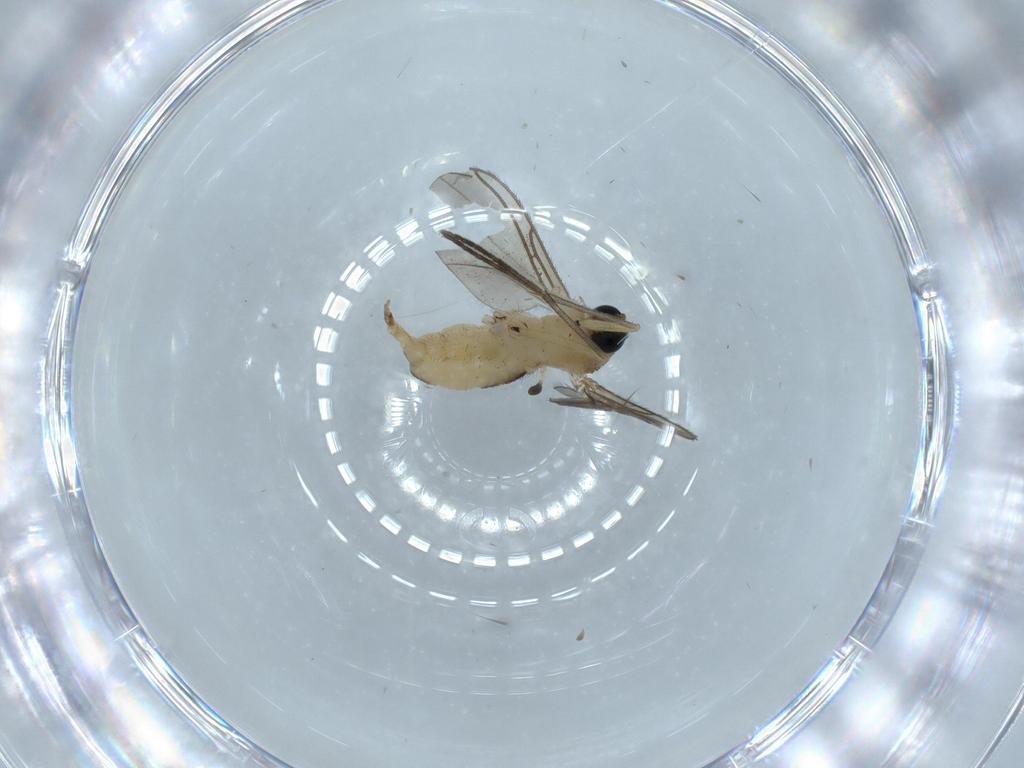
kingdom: Animalia
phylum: Arthropoda
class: Insecta
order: Diptera
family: Sciaridae
